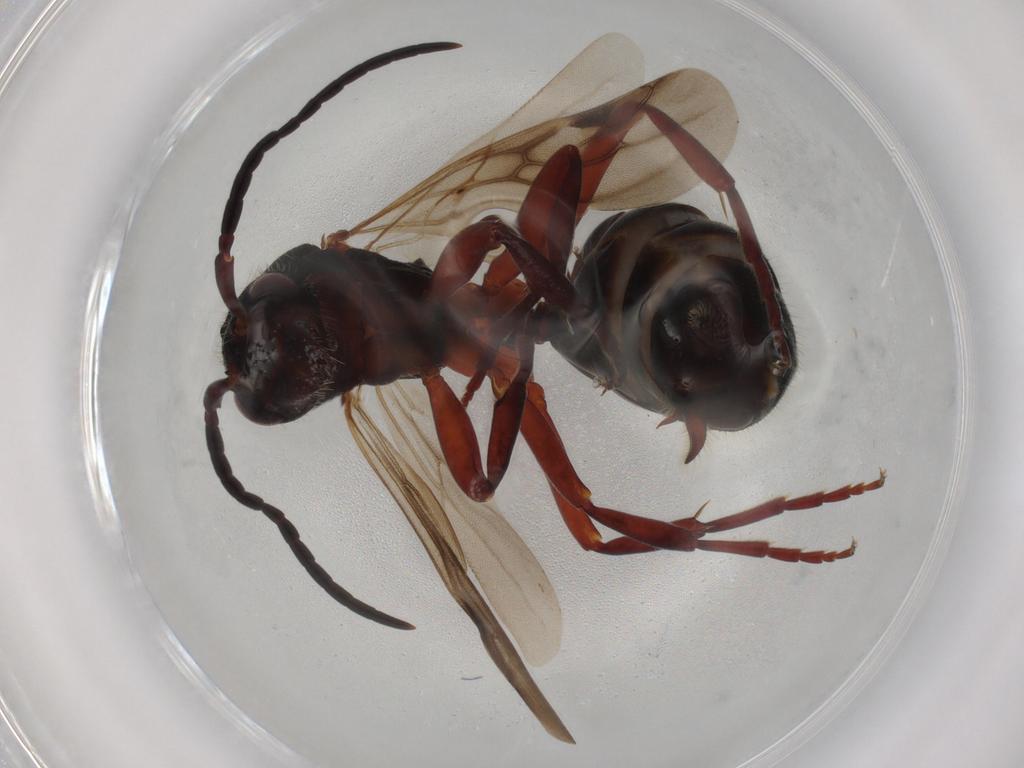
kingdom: Animalia
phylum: Arthropoda
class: Insecta
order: Hymenoptera
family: Formicidae
